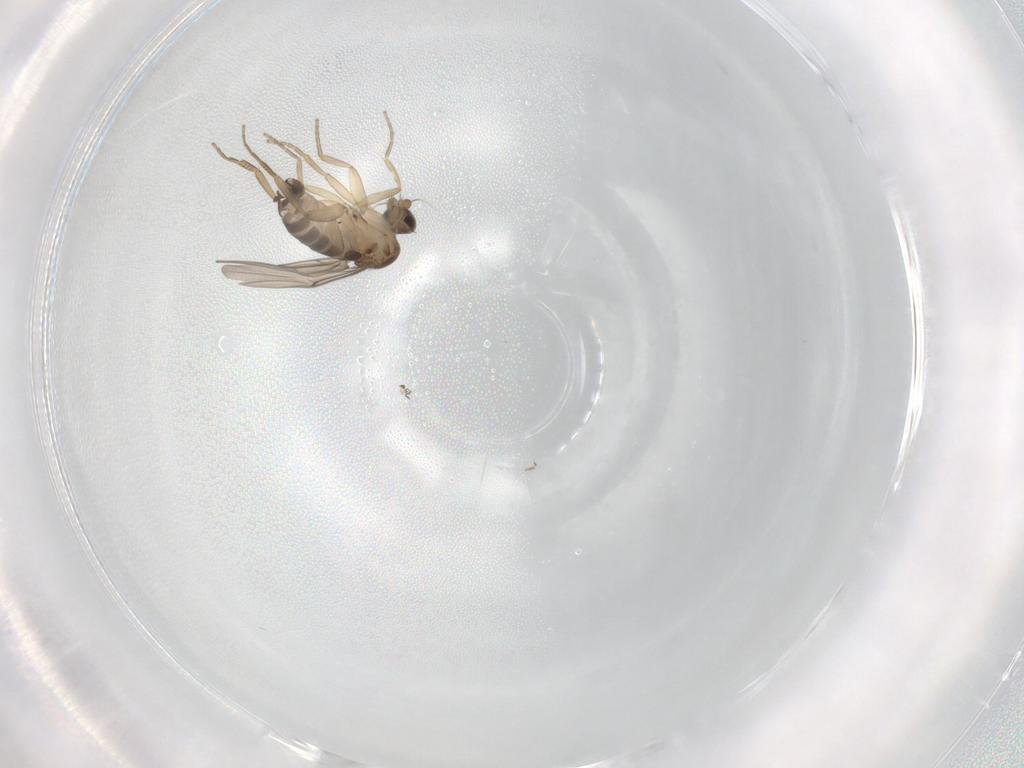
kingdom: Animalia
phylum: Arthropoda
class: Insecta
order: Diptera
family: Phoridae
